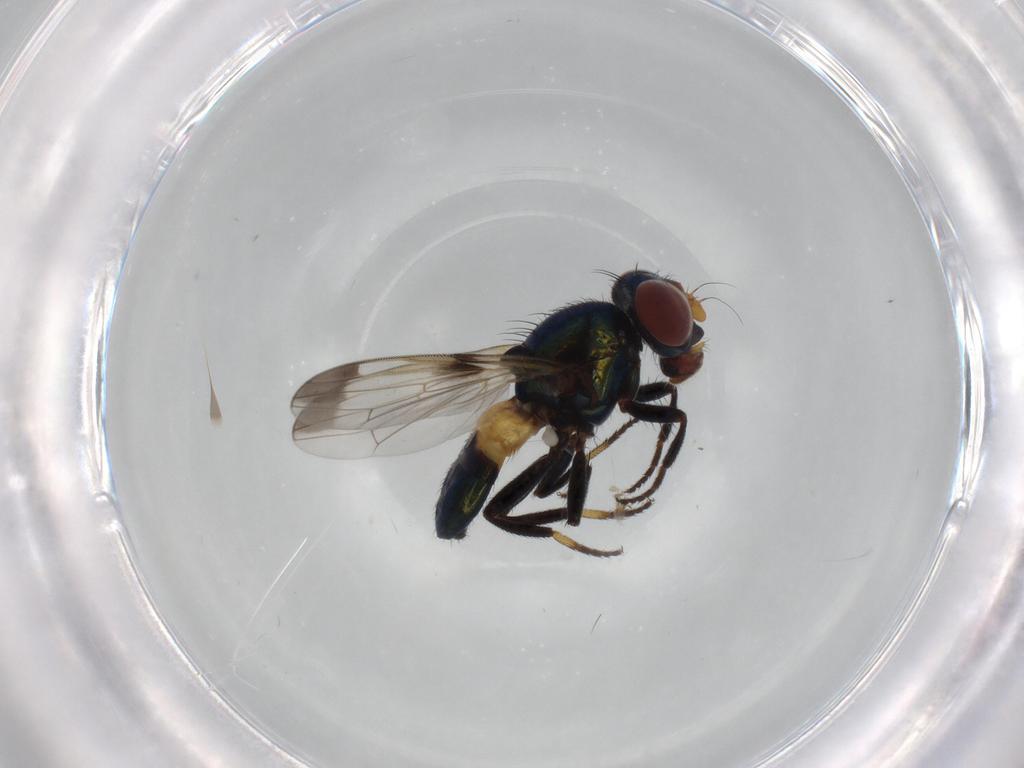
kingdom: Animalia
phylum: Arthropoda
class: Insecta
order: Diptera
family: Ulidiidae
